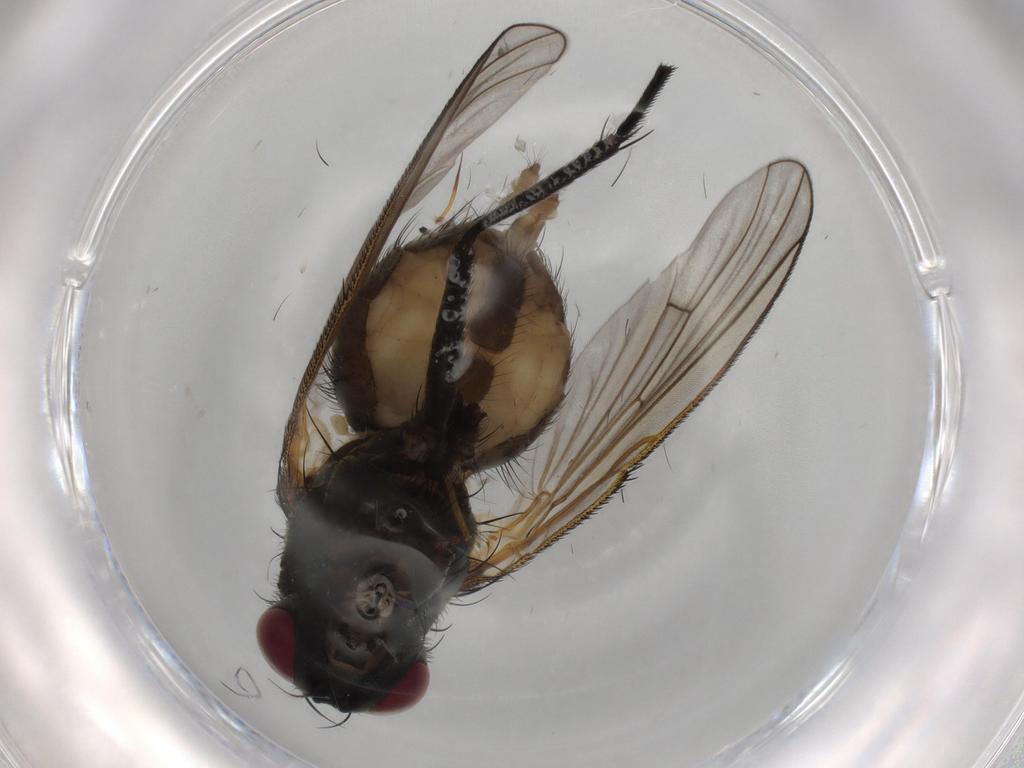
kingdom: Animalia
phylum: Arthropoda
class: Insecta
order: Diptera
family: Muscidae
